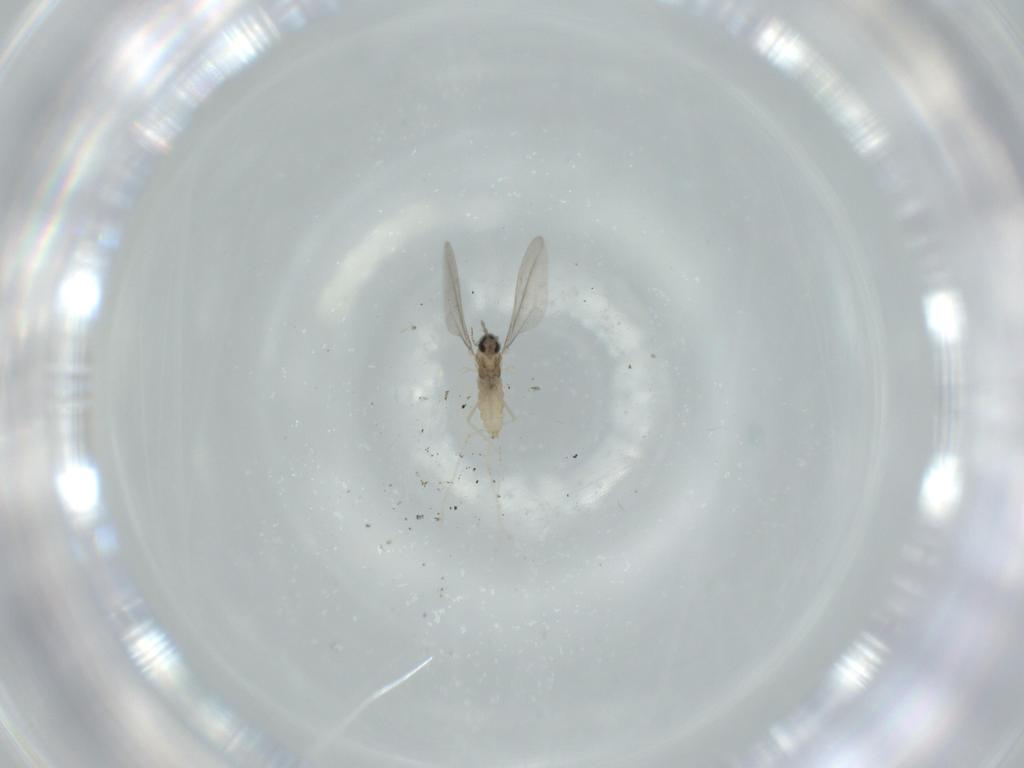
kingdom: Animalia
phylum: Arthropoda
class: Insecta
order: Diptera
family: Cecidomyiidae
